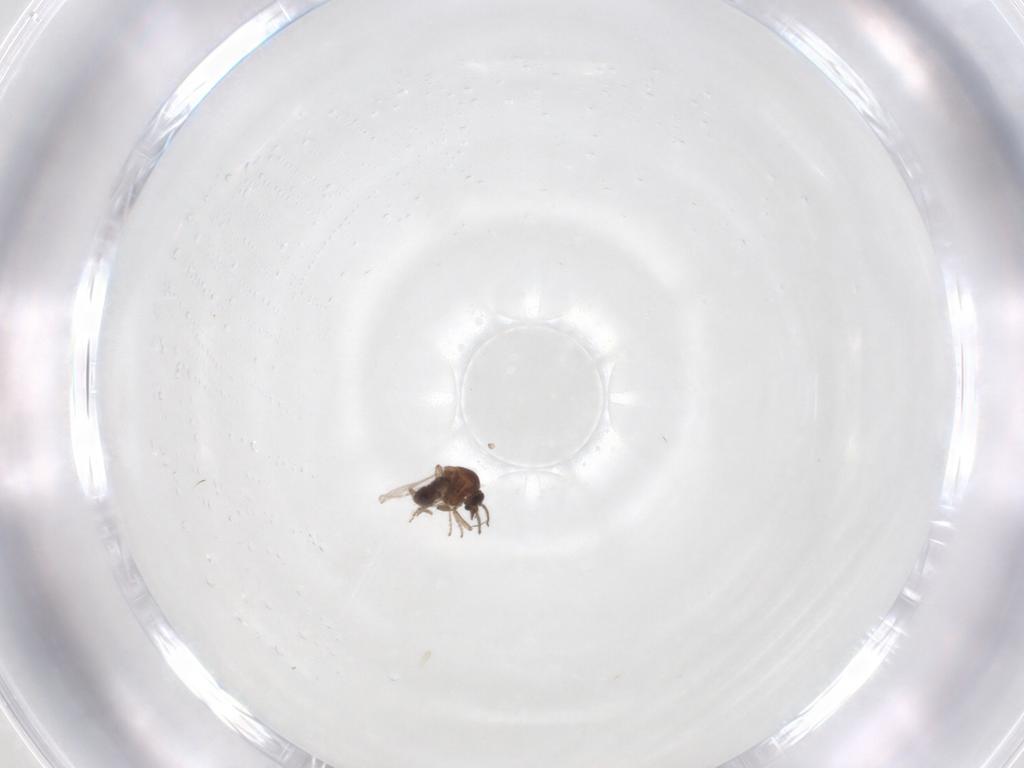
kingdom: Animalia
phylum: Arthropoda
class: Insecta
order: Diptera
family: Ceratopogonidae
